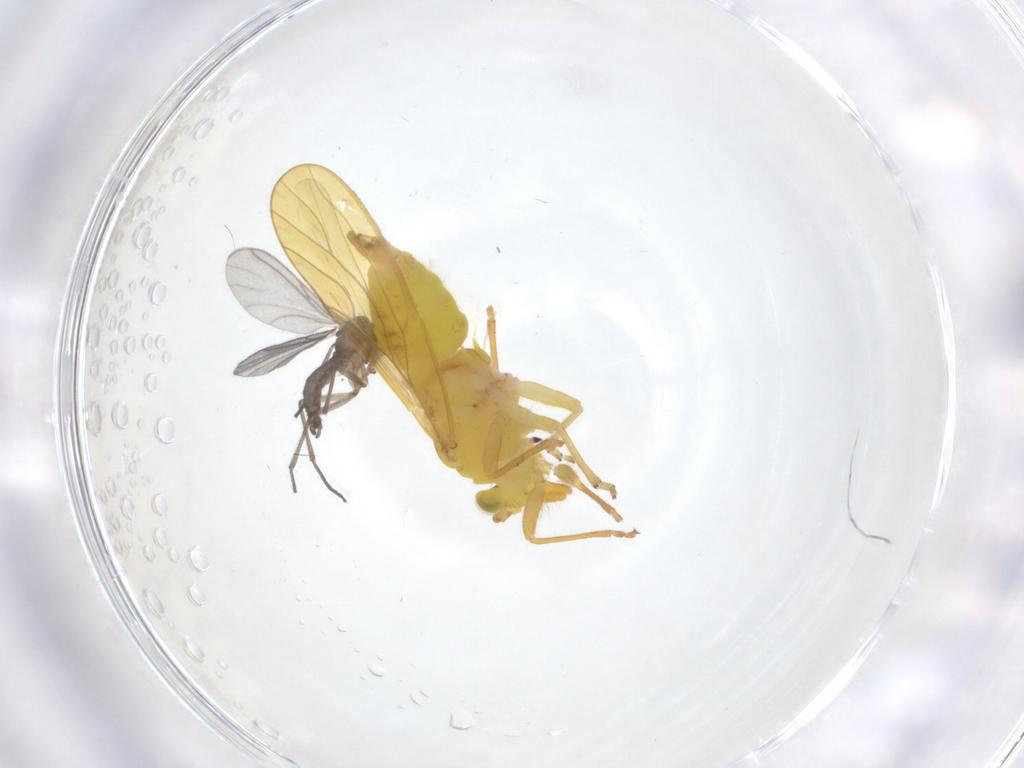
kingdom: Animalia
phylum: Arthropoda
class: Insecta
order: Diptera
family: Sciaridae
